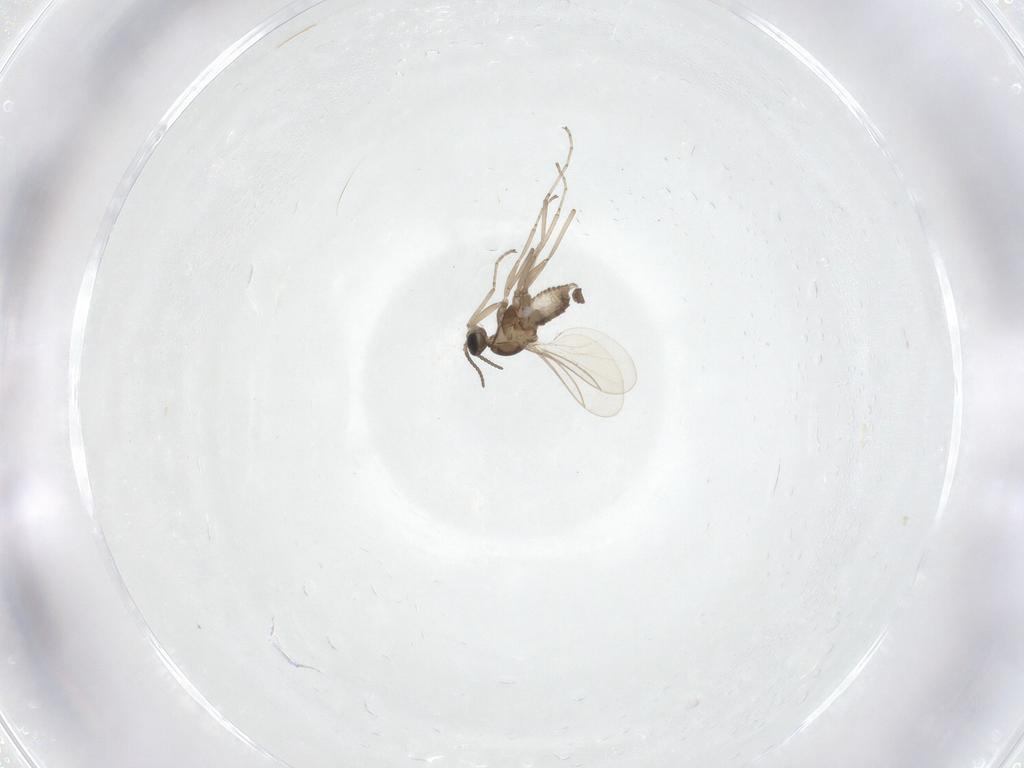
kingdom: Animalia
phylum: Arthropoda
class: Insecta
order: Diptera
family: Cecidomyiidae
